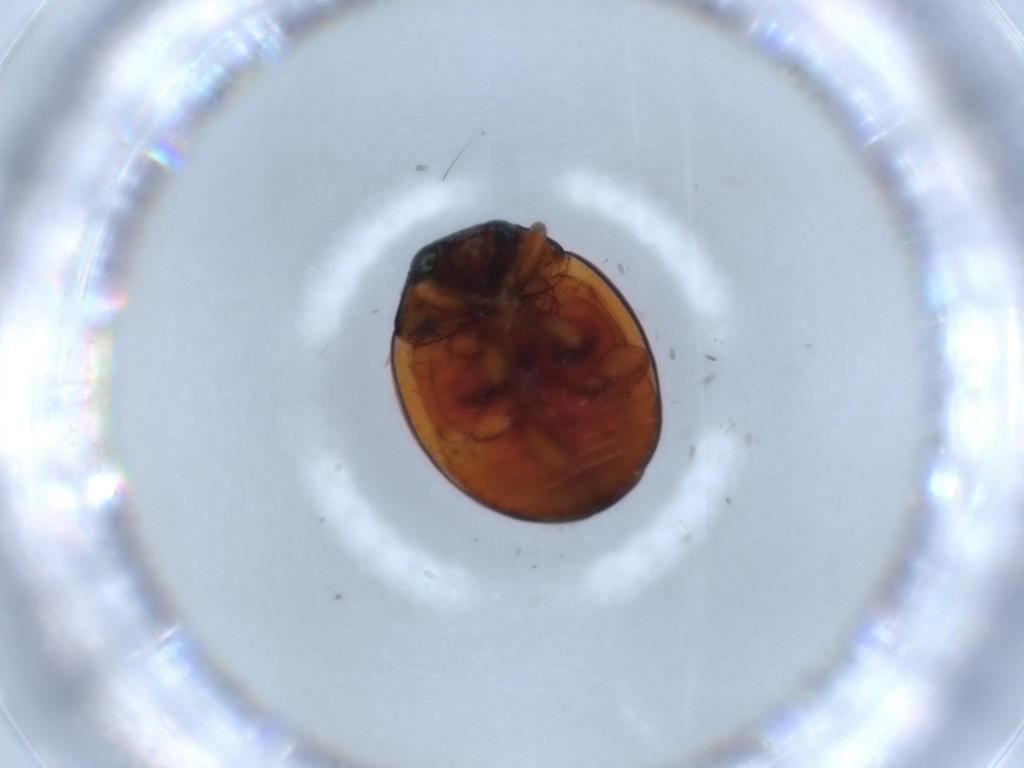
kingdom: Animalia
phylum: Arthropoda
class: Insecta
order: Coleoptera
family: Coccinellidae
